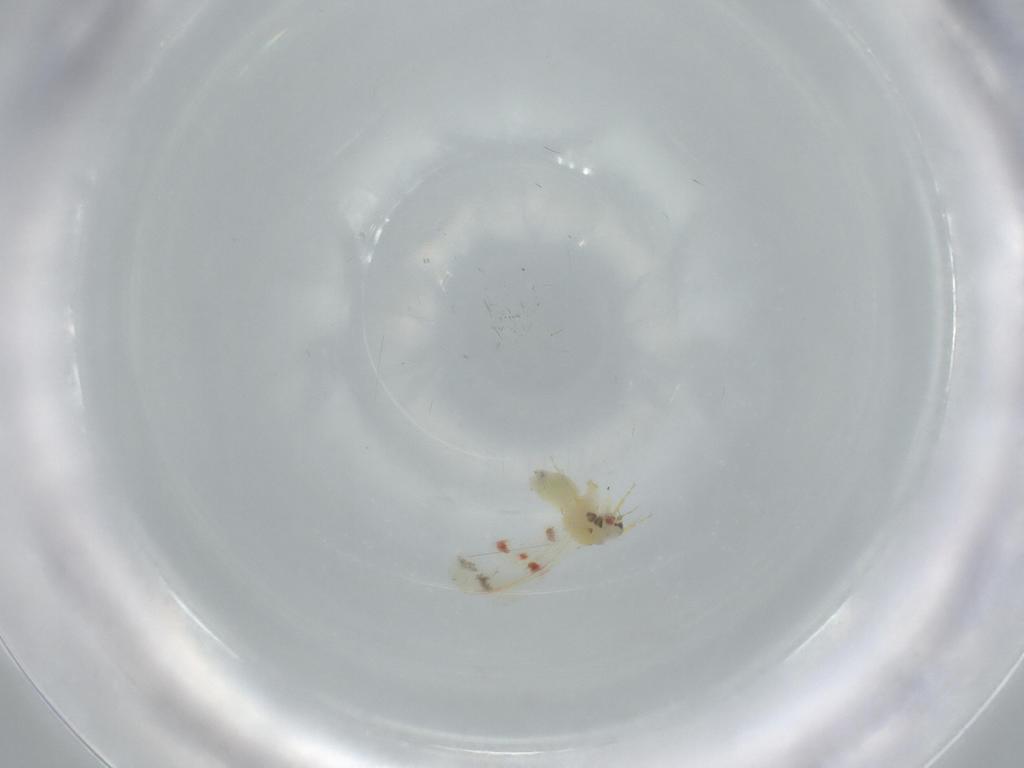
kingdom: Animalia
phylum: Arthropoda
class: Insecta
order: Hemiptera
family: Aleyrodidae
